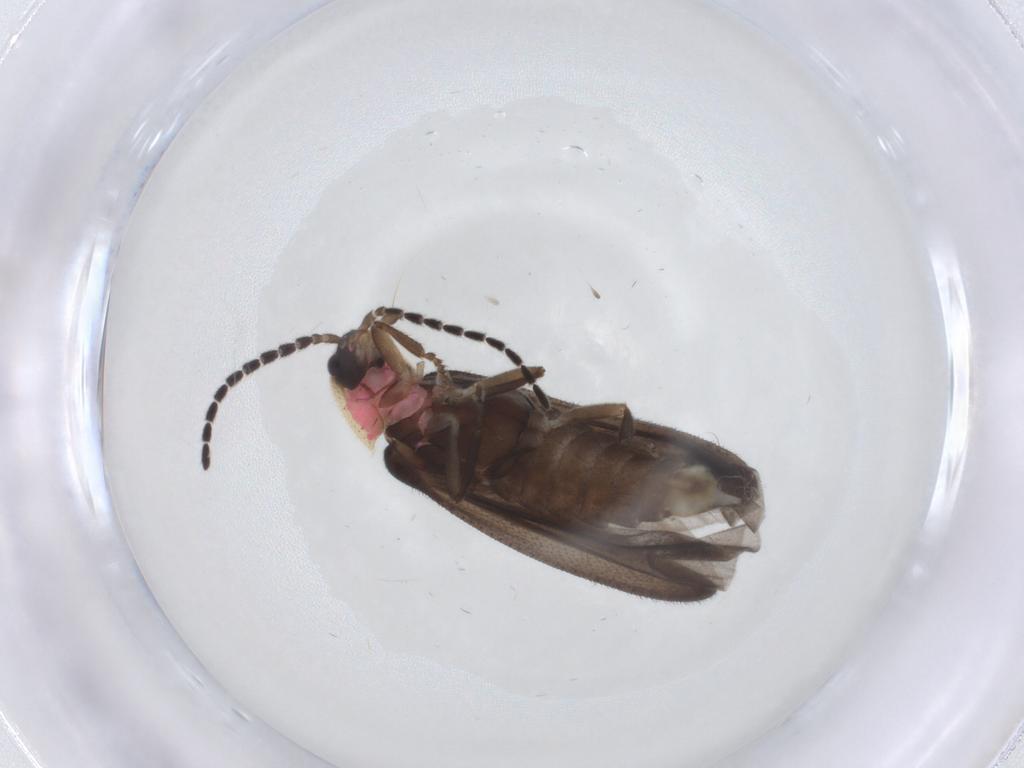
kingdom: Animalia
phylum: Arthropoda
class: Insecta
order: Coleoptera
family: Lampyridae
